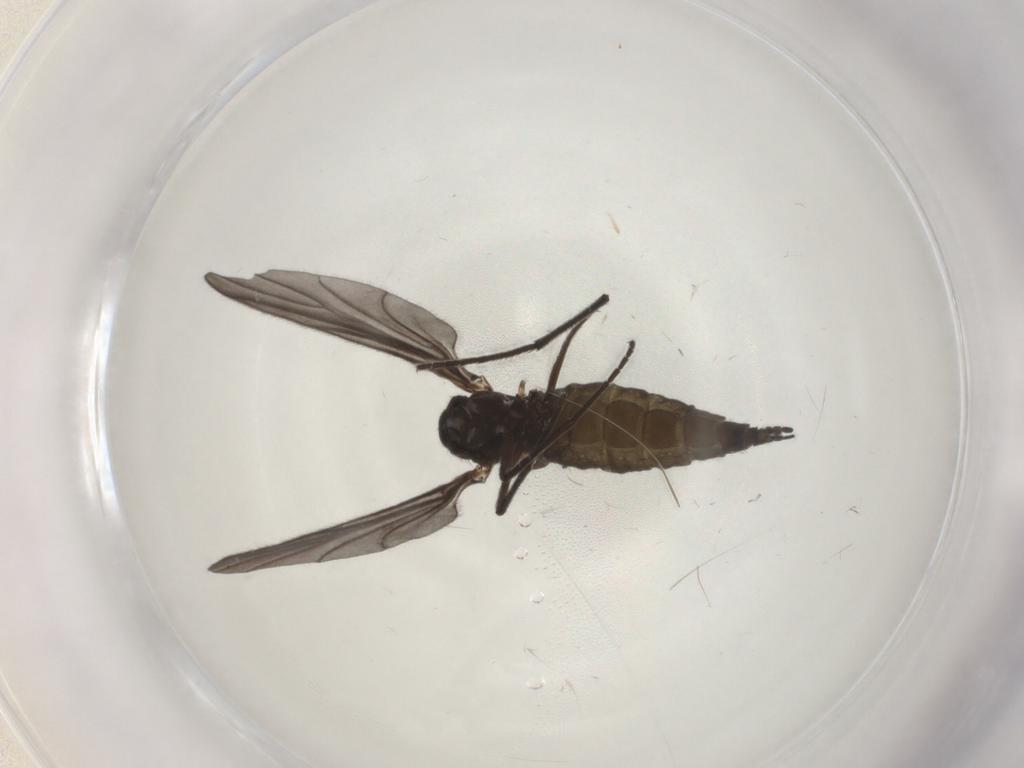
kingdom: Animalia
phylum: Arthropoda
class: Insecta
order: Diptera
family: Sciaridae
